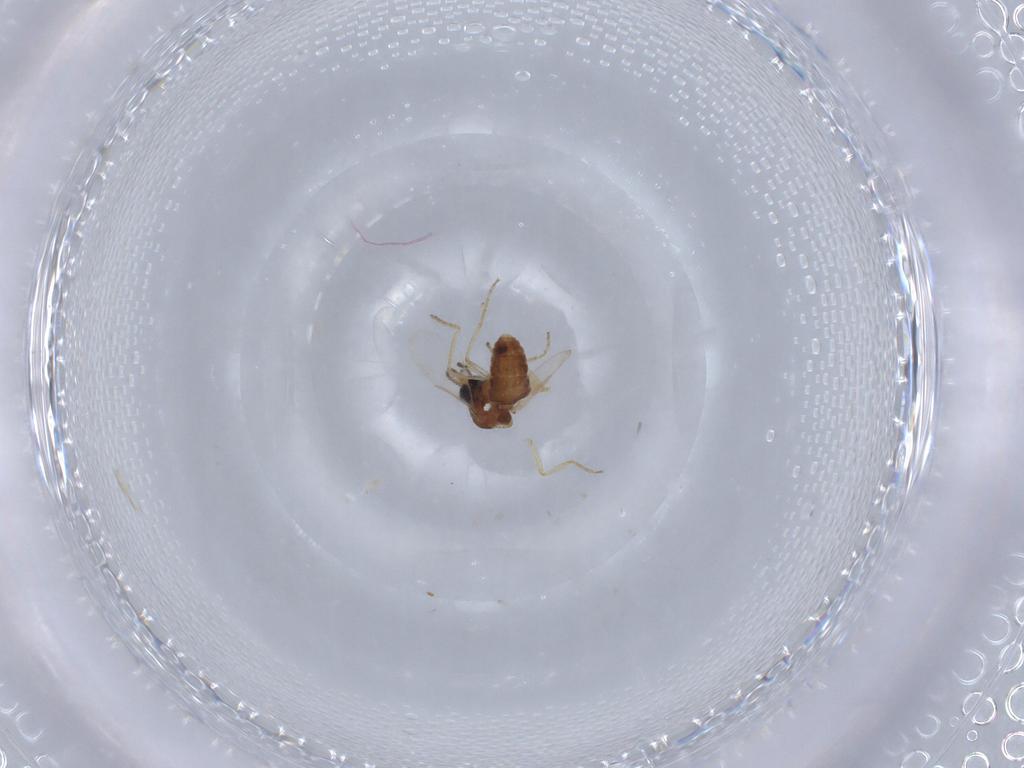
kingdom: Animalia
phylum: Arthropoda
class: Insecta
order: Diptera
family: Ceratopogonidae
